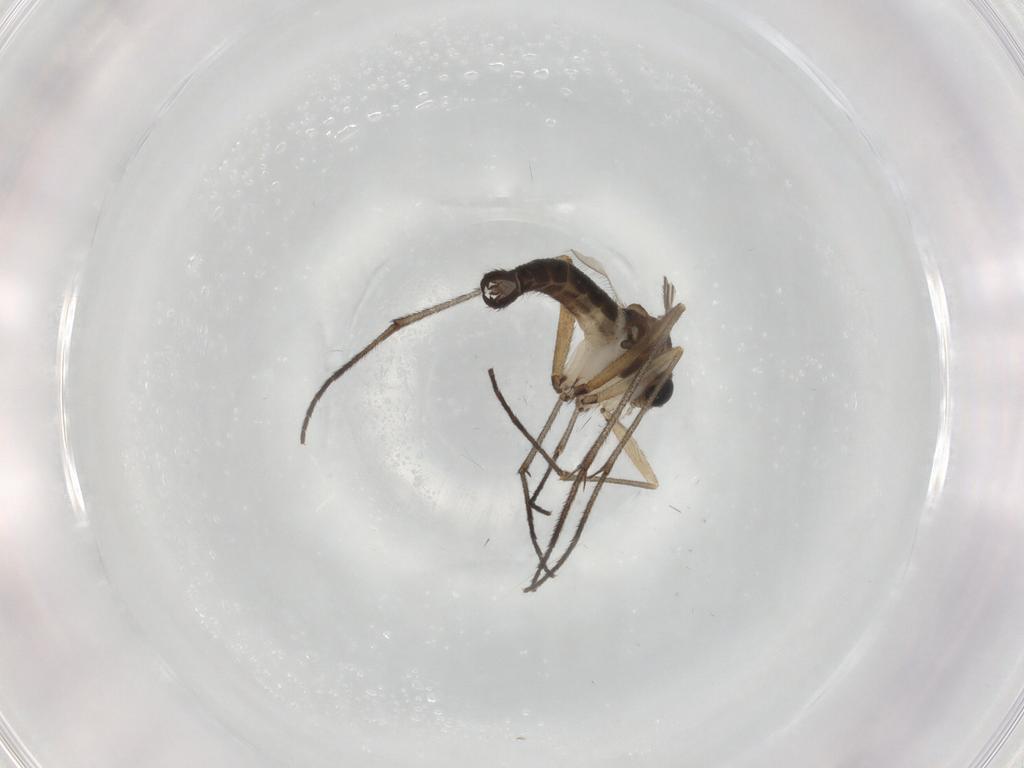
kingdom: Animalia
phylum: Arthropoda
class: Insecta
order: Diptera
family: Sciaridae
